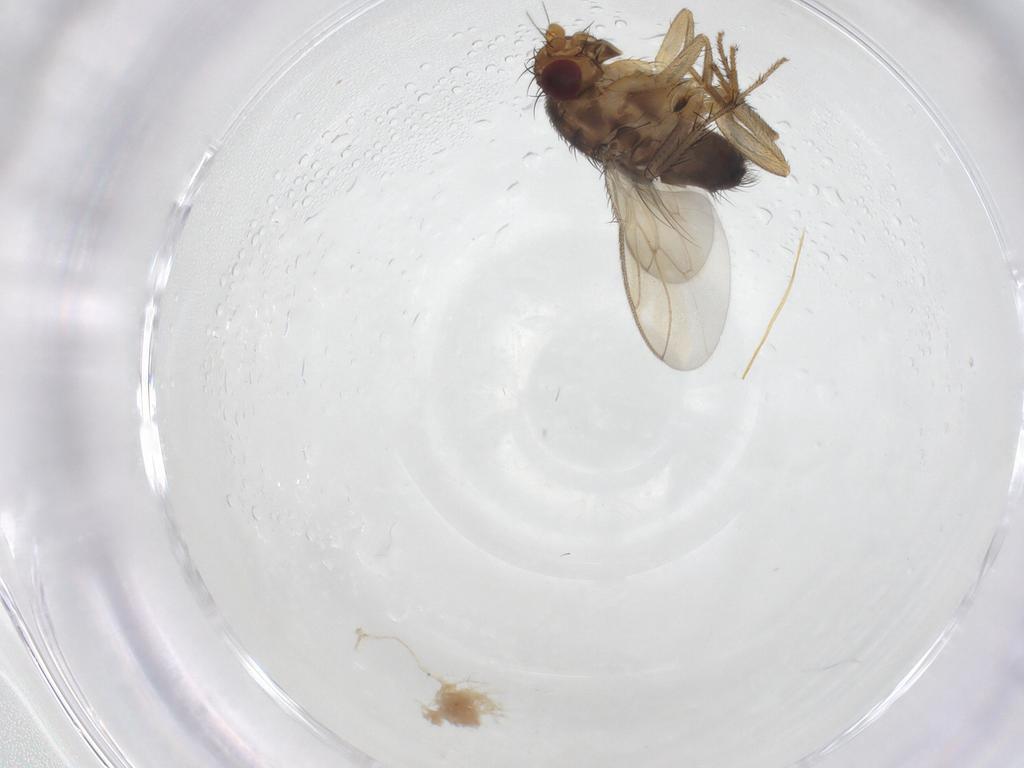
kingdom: Animalia
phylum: Arthropoda
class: Insecta
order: Diptera
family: Sphaeroceridae
